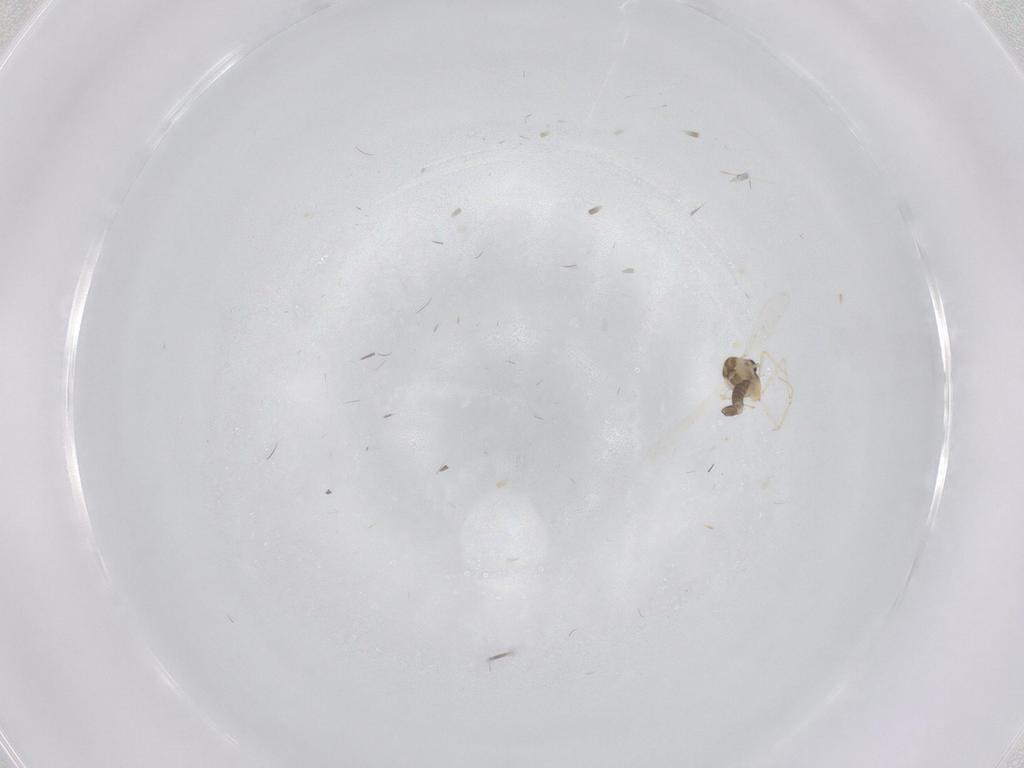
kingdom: Animalia
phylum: Arthropoda
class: Insecta
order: Diptera
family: Chironomidae
